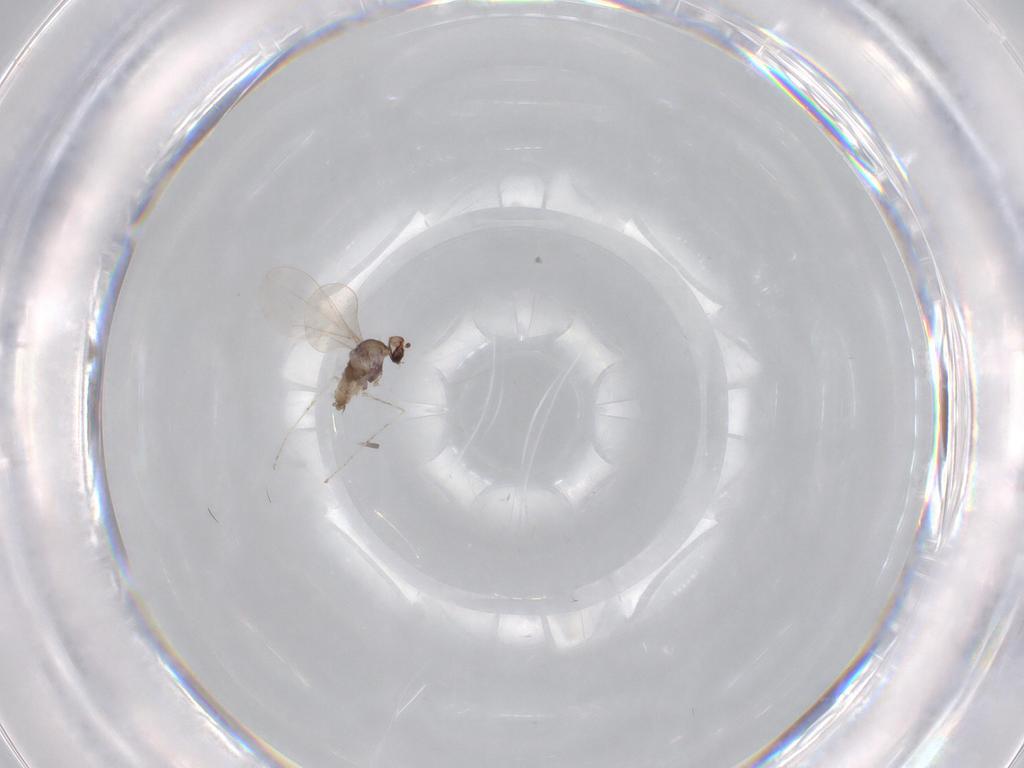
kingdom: Animalia
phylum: Arthropoda
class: Insecta
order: Diptera
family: Cecidomyiidae
